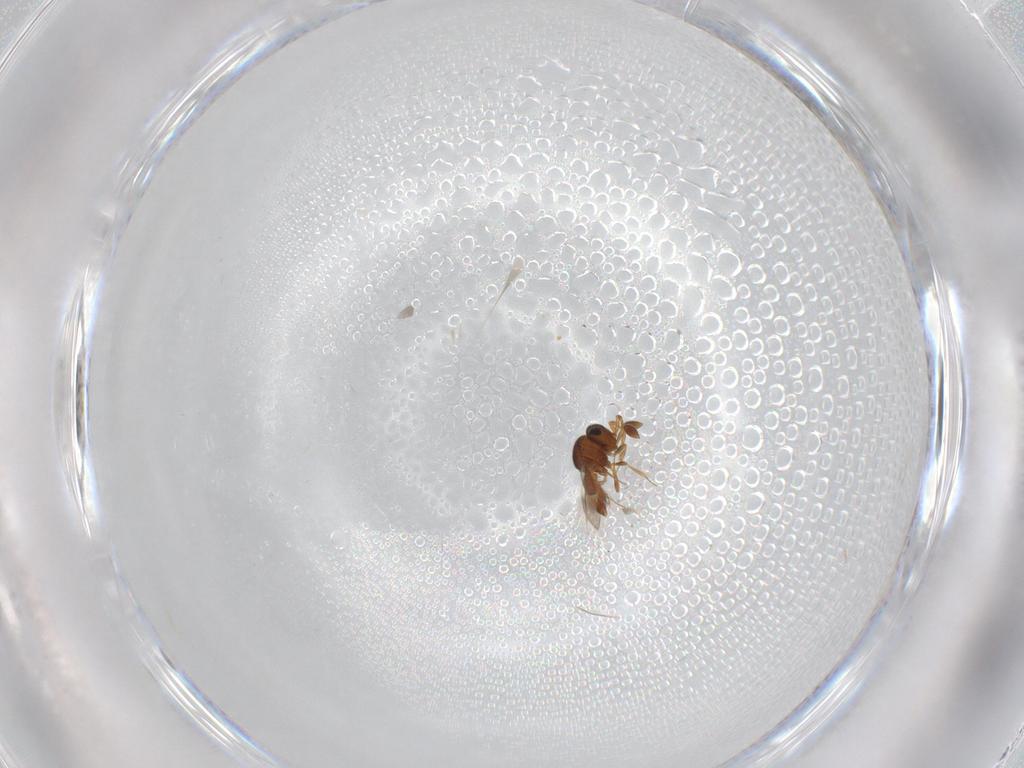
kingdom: Animalia
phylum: Arthropoda
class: Insecta
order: Hymenoptera
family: Scelionidae
